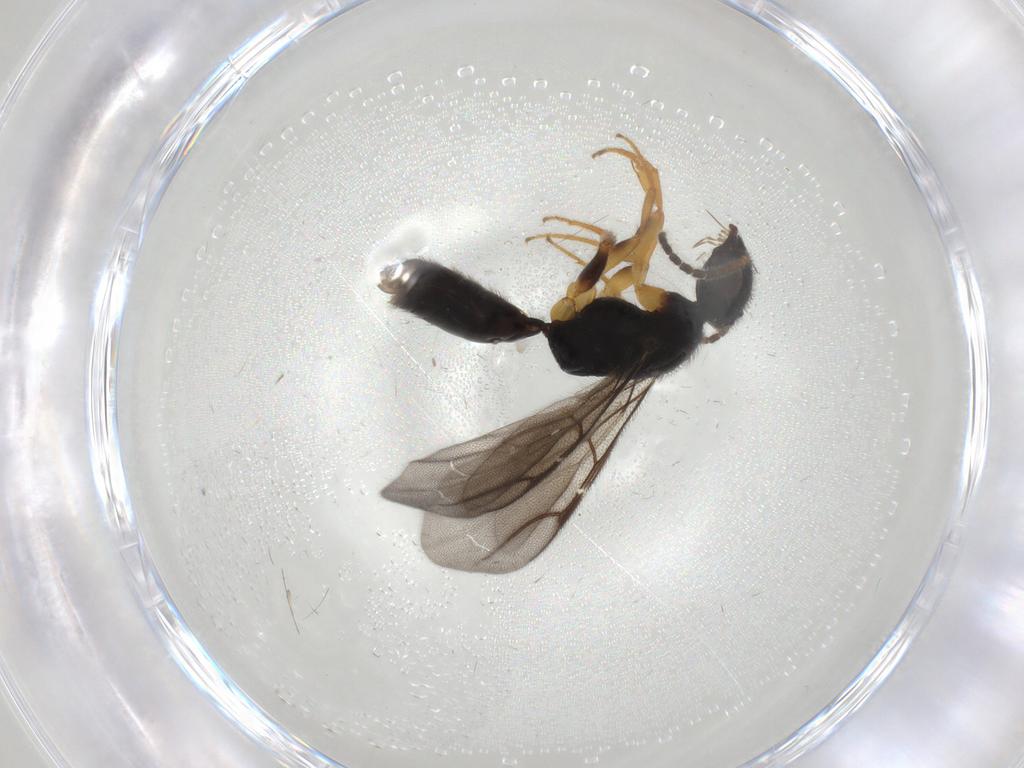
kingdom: Animalia
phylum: Arthropoda
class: Insecta
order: Hymenoptera
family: Bethylidae
